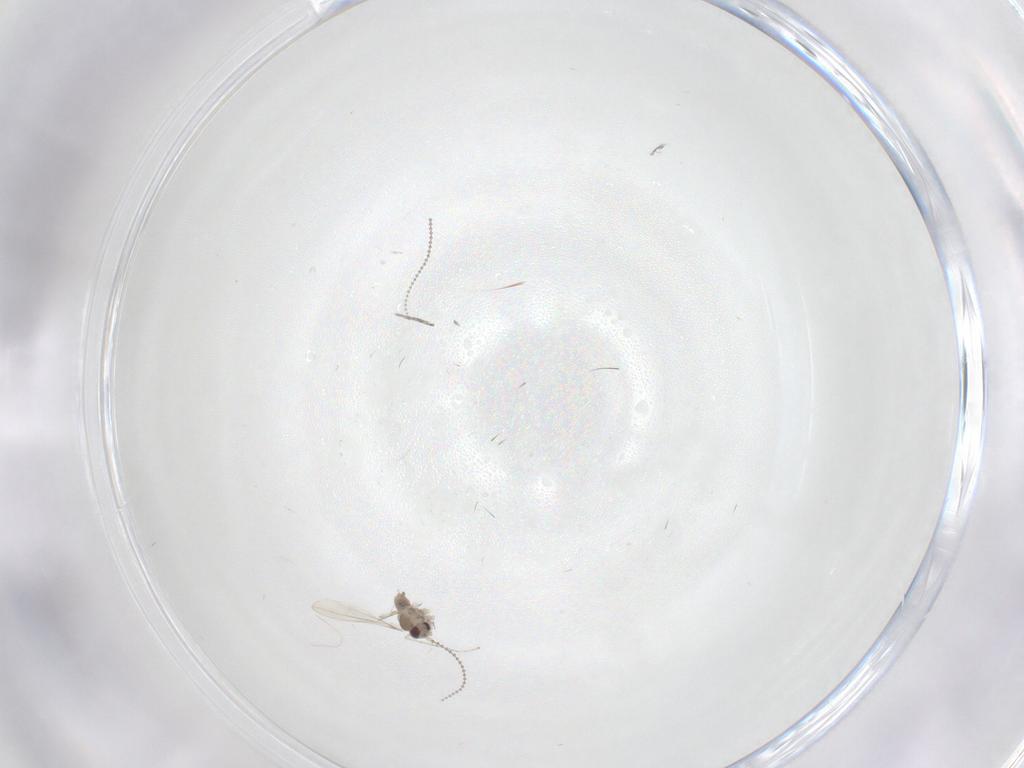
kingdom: Animalia
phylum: Arthropoda
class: Insecta
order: Diptera
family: Cecidomyiidae
